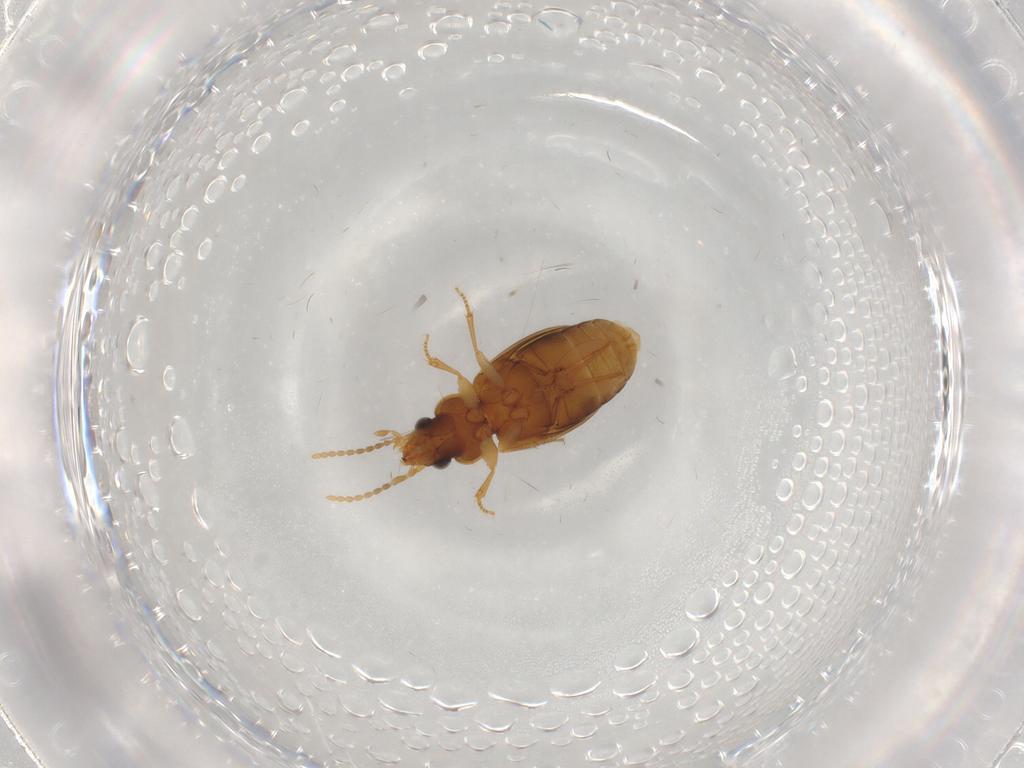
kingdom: Animalia
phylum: Arthropoda
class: Insecta
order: Coleoptera
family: Carabidae
